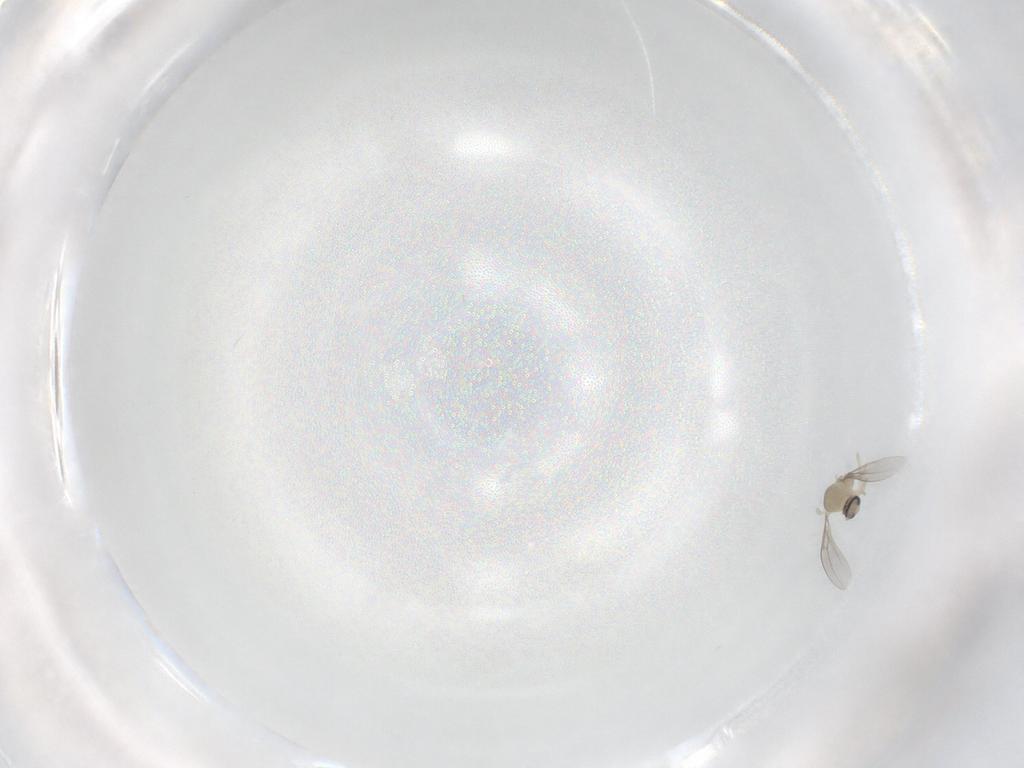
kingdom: Animalia
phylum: Arthropoda
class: Insecta
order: Diptera
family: Cecidomyiidae
